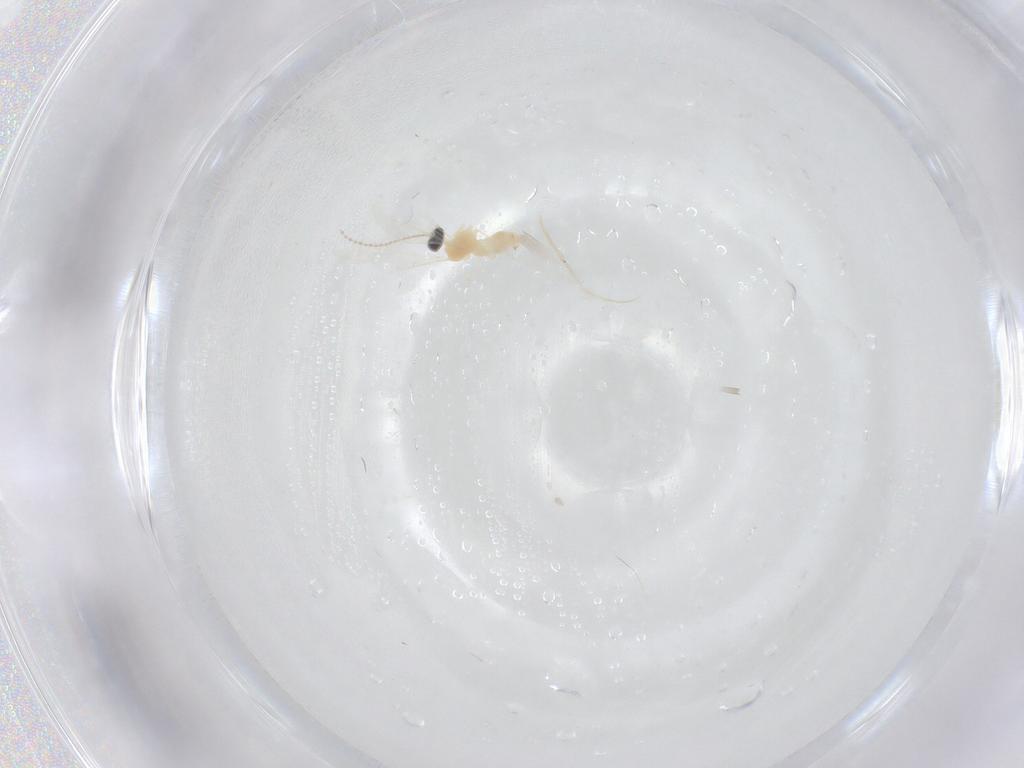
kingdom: Animalia
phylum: Arthropoda
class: Insecta
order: Diptera
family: Cecidomyiidae
